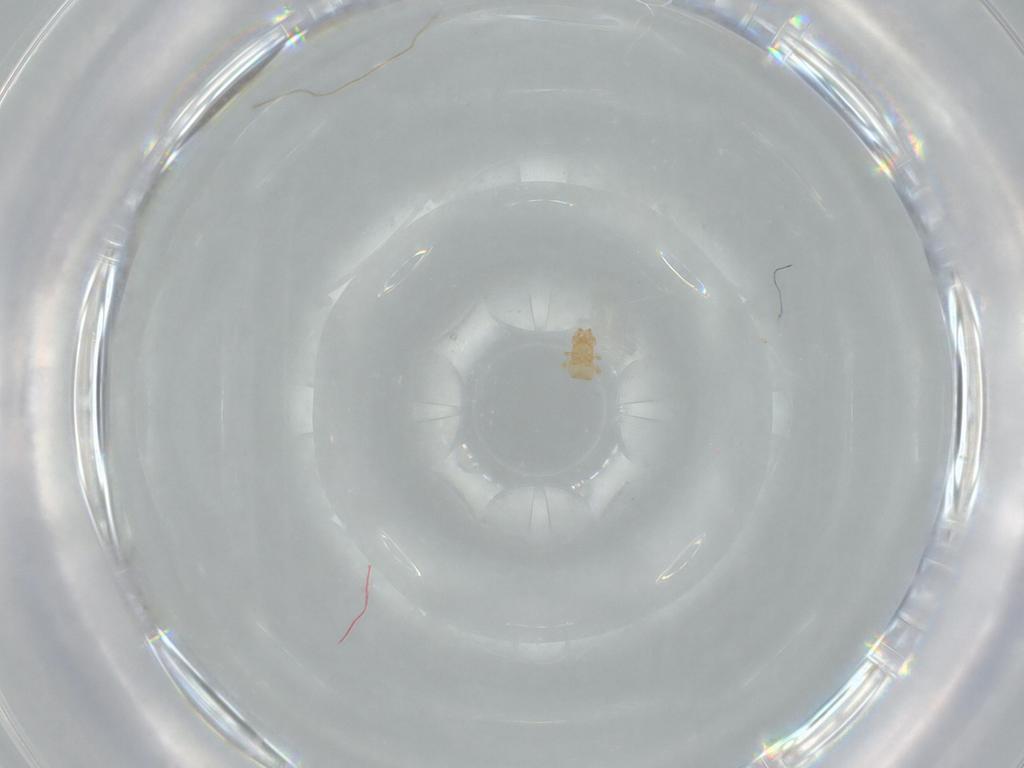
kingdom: Animalia
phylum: Arthropoda
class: Arachnida
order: Mesostigmata
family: Digamasellidae
